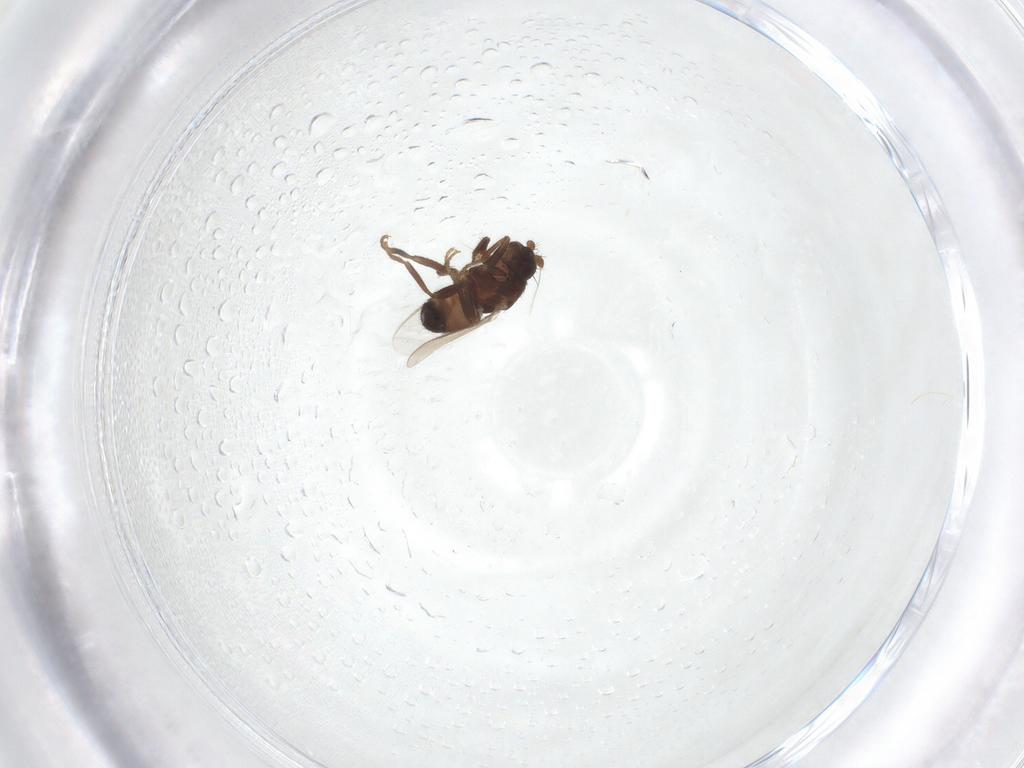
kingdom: Animalia
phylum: Arthropoda
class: Insecta
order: Diptera
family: Sphaeroceridae
